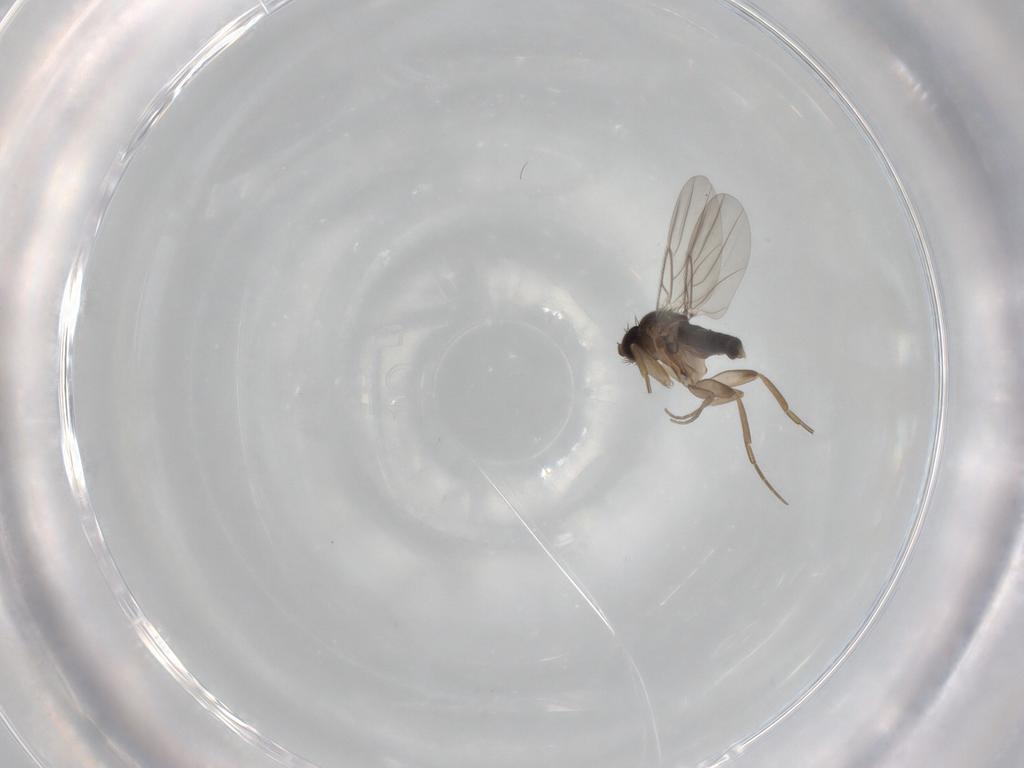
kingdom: Animalia
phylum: Arthropoda
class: Insecta
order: Diptera
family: Phoridae
